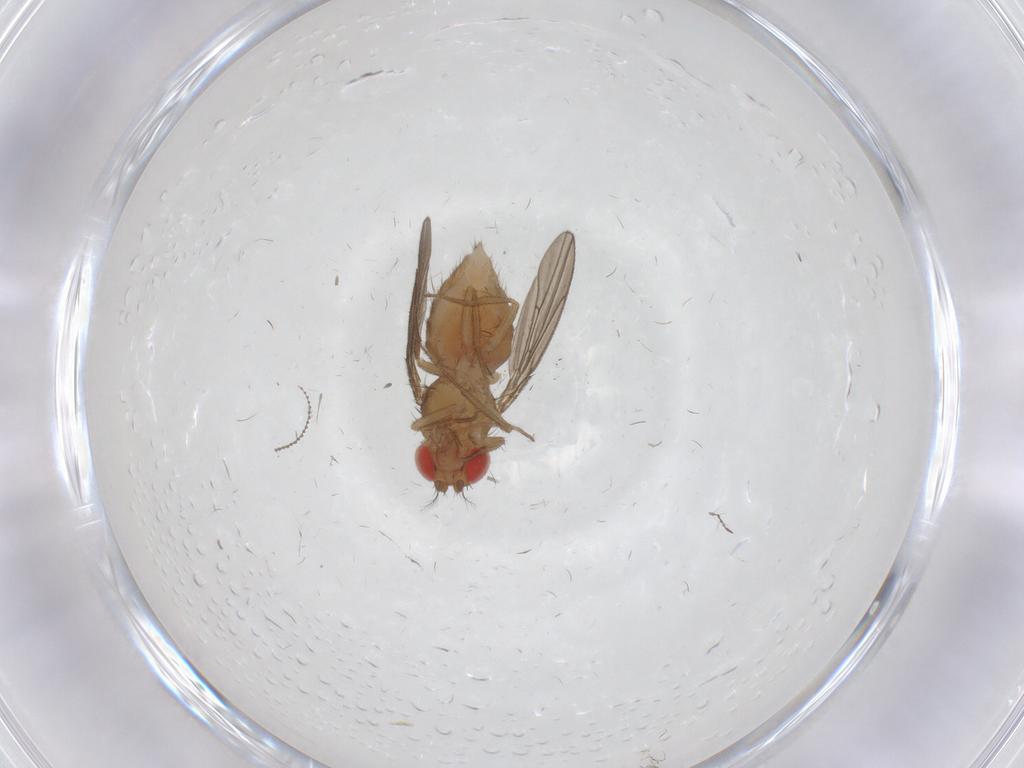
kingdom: Animalia
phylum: Arthropoda
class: Insecta
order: Diptera
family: Drosophilidae
